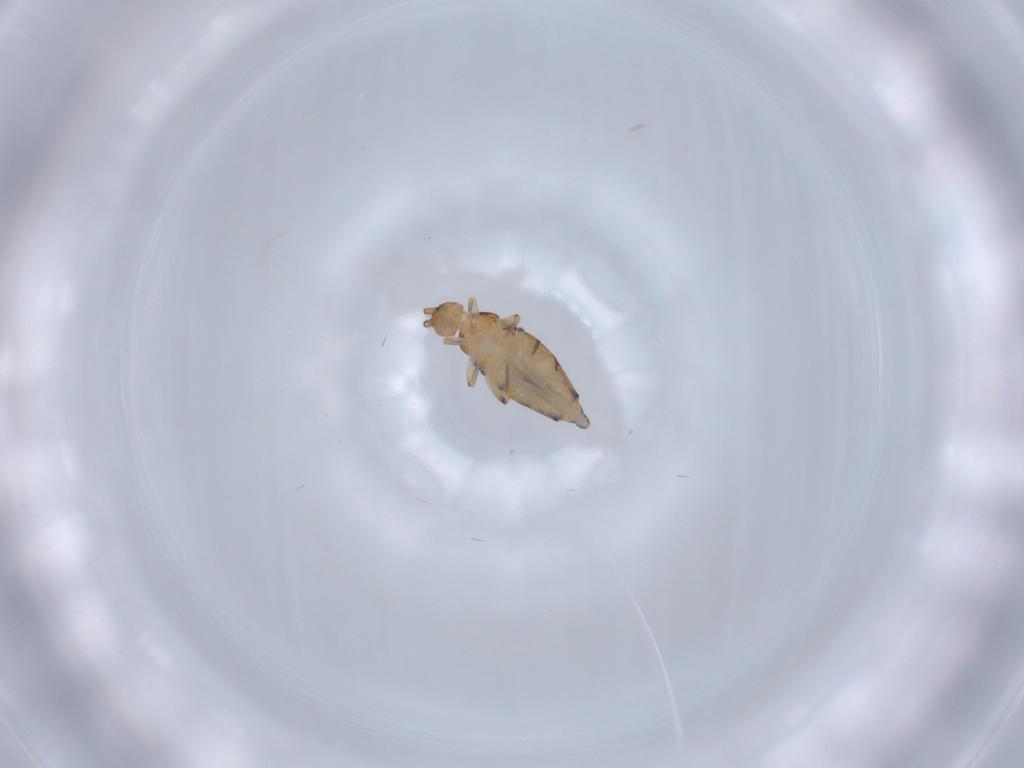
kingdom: Animalia
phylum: Arthropoda
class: Collembola
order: Entomobryomorpha
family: Entomobryidae
